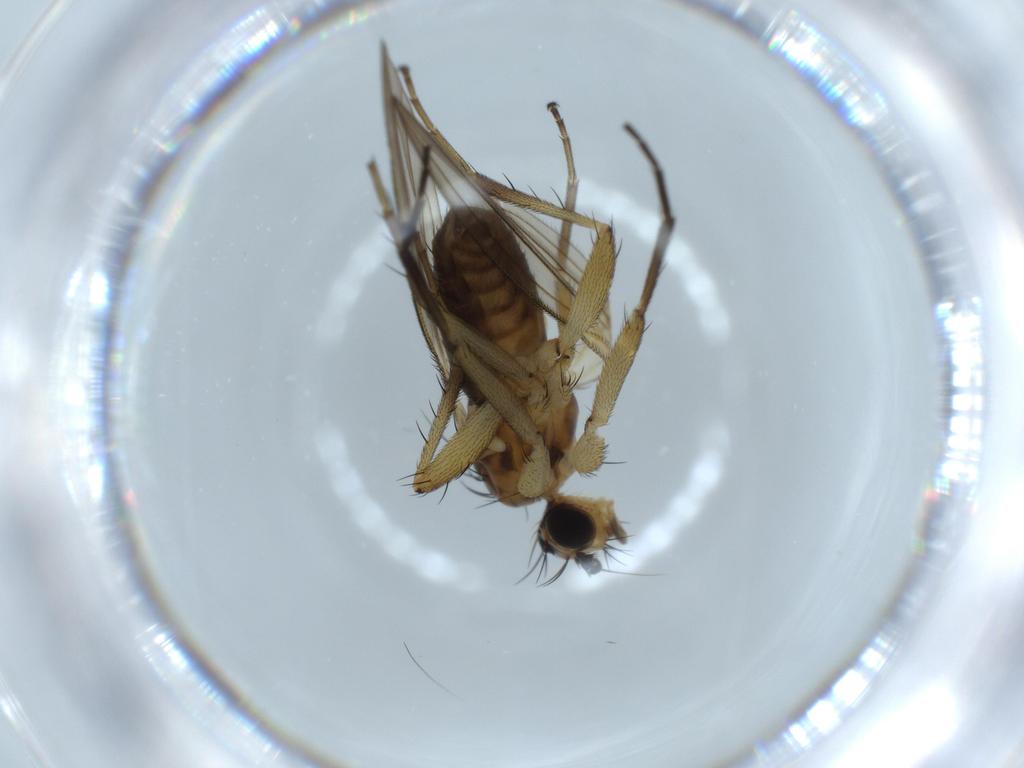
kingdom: Animalia
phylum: Arthropoda
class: Insecta
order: Diptera
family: Lonchopteridae
